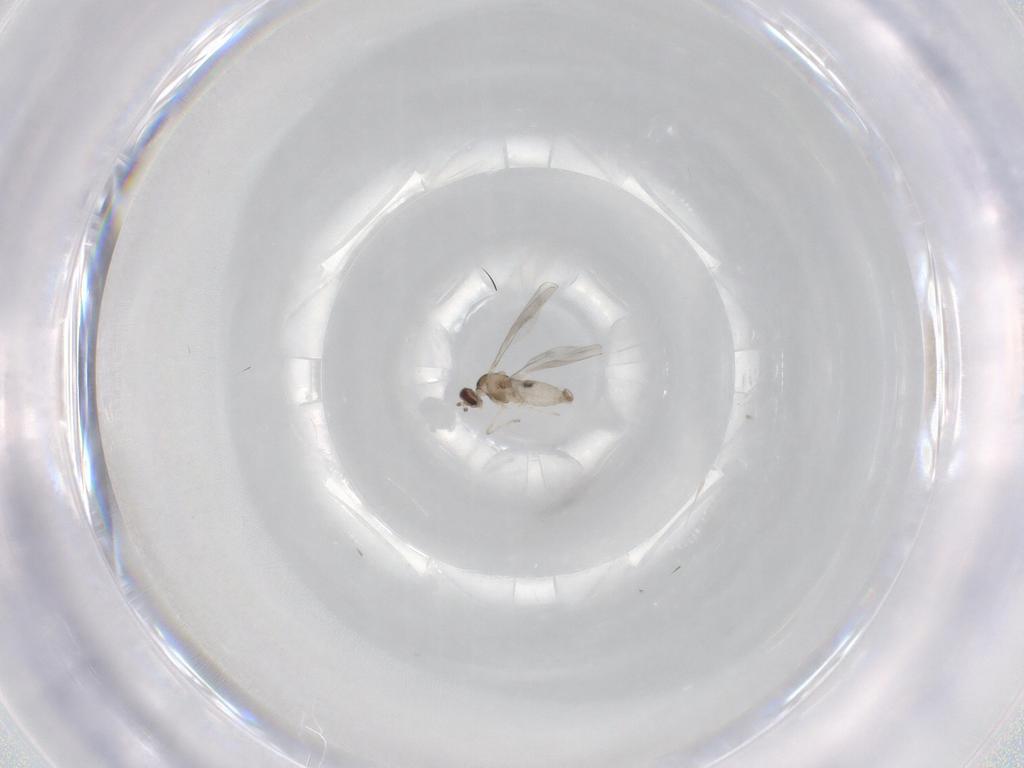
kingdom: Animalia
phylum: Arthropoda
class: Insecta
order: Diptera
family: Cecidomyiidae
